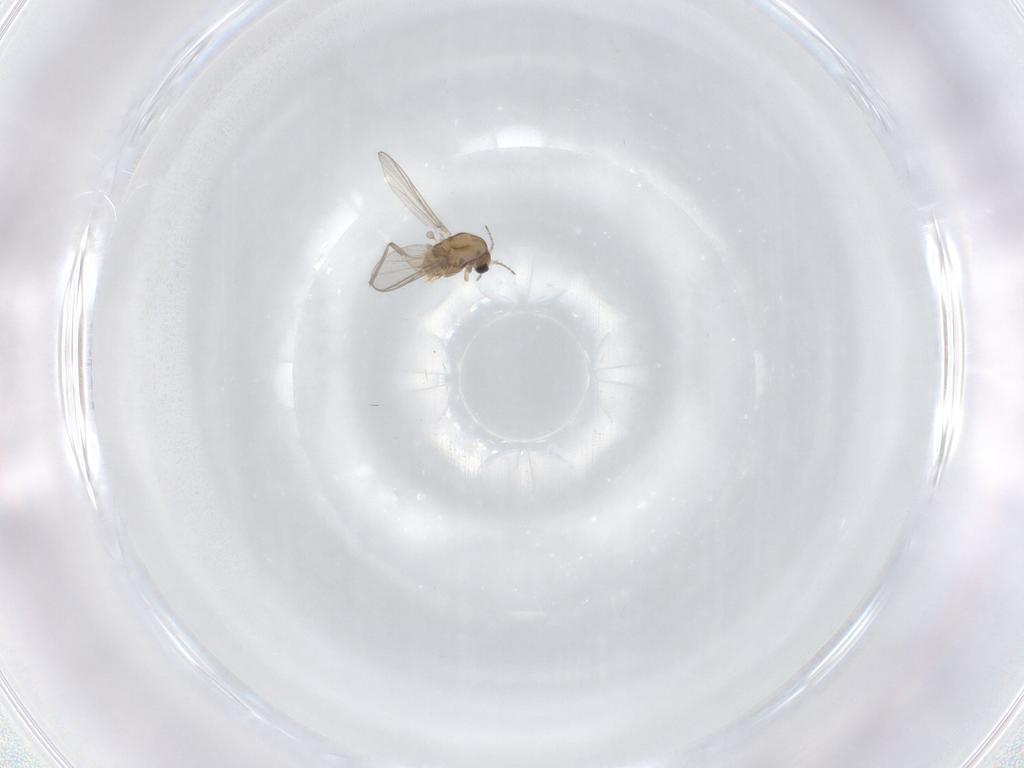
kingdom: Animalia
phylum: Arthropoda
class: Insecta
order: Diptera
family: Chironomidae
